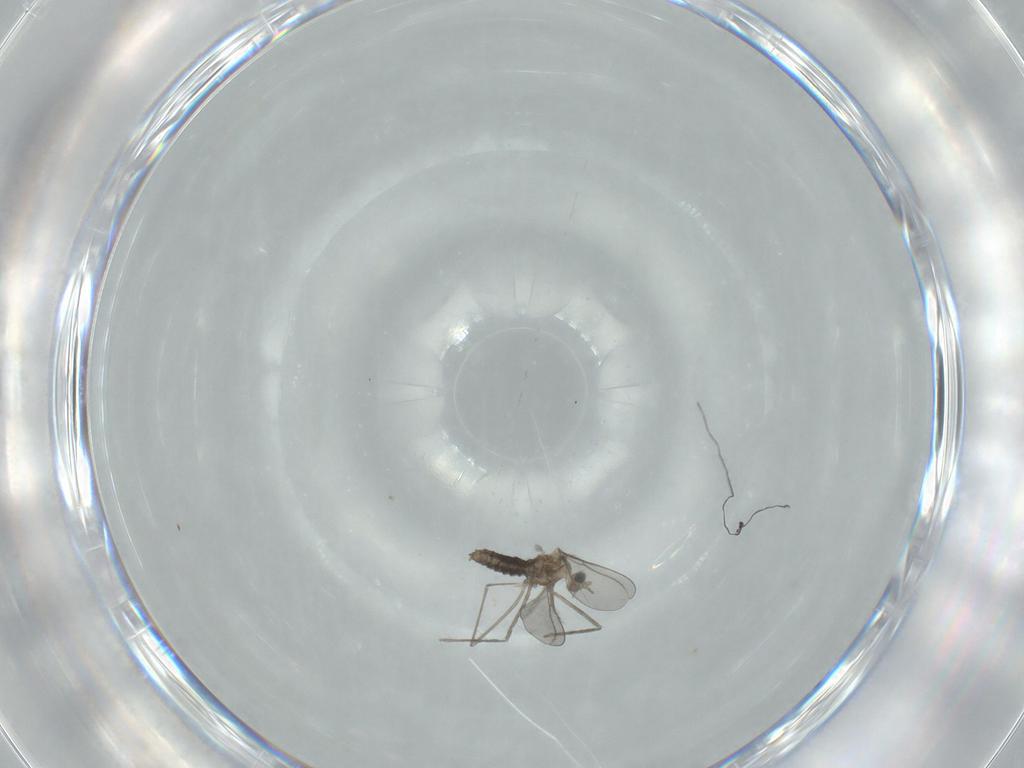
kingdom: Animalia
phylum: Arthropoda
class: Insecta
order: Diptera
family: Cecidomyiidae
